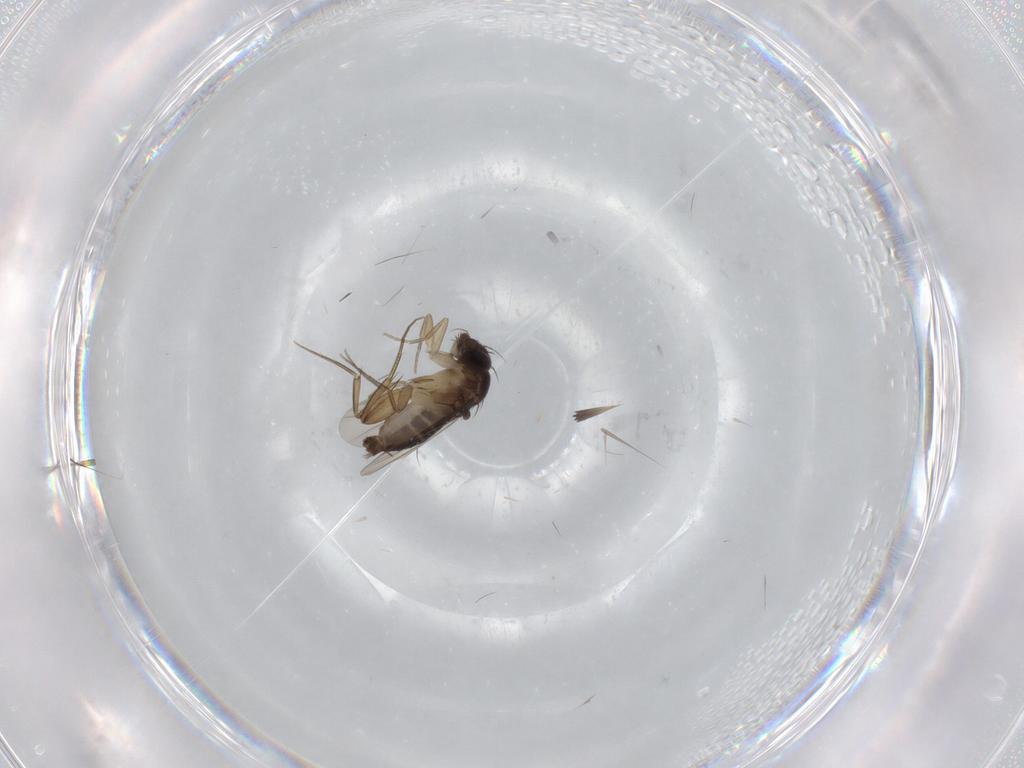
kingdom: Animalia
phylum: Arthropoda
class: Insecta
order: Diptera
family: Phoridae
